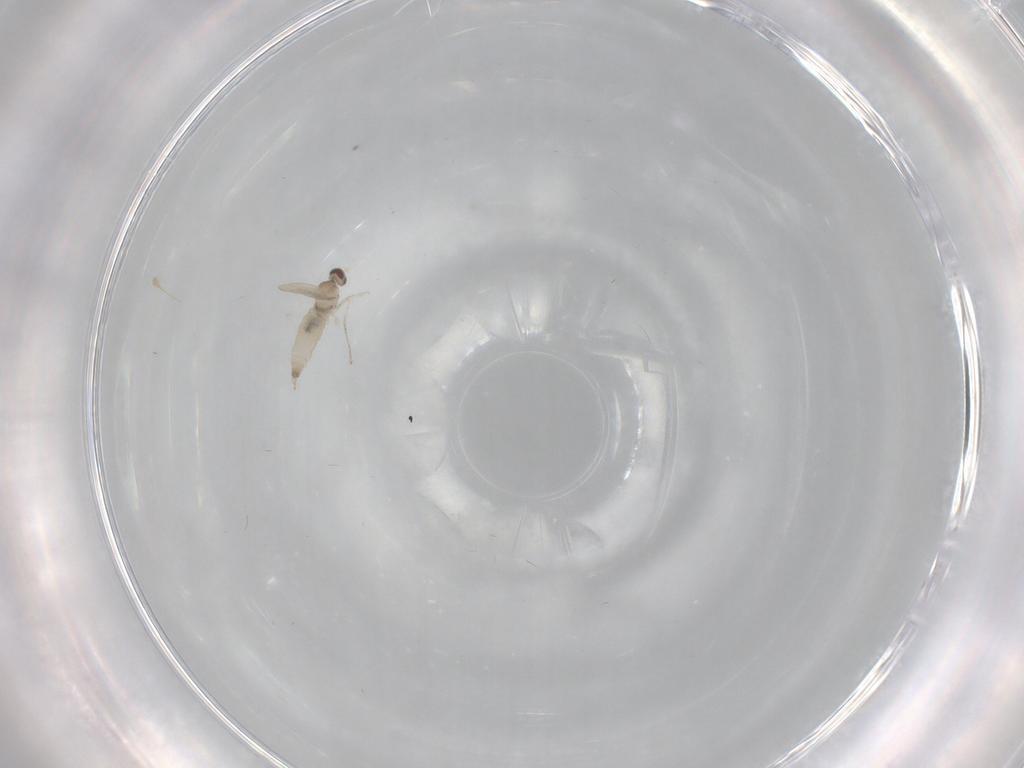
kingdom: Animalia
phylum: Arthropoda
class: Insecta
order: Diptera
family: Cecidomyiidae
